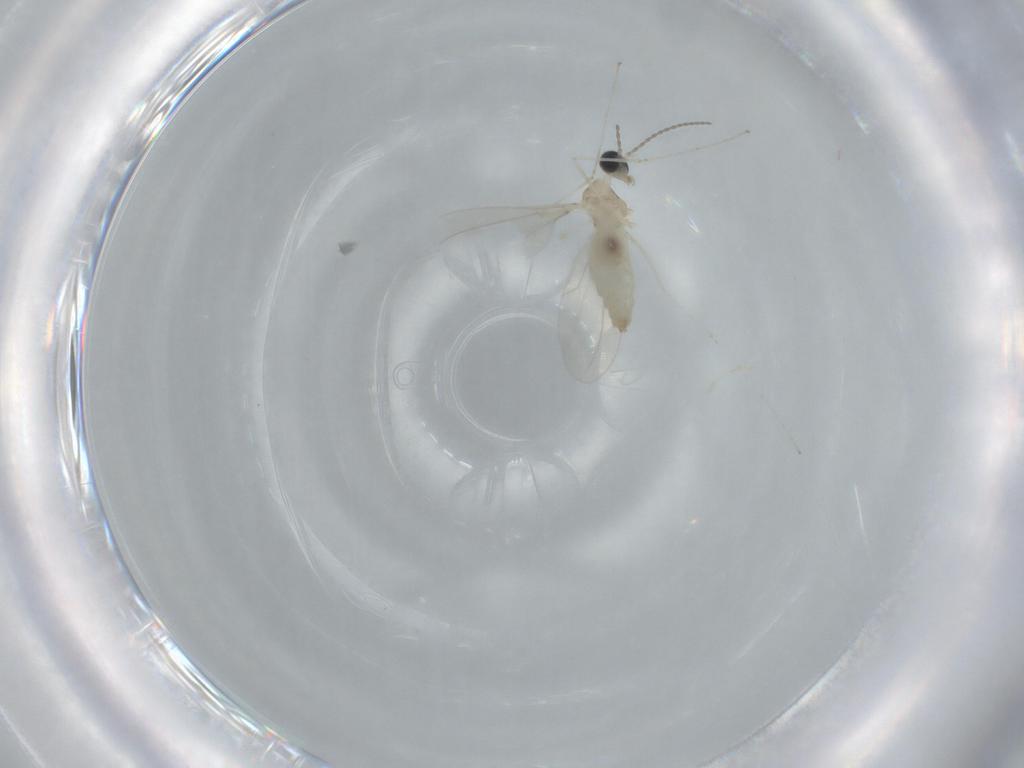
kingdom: Animalia
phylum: Arthropoda
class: Insecta
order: Diptera
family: Cecidomyiidae
